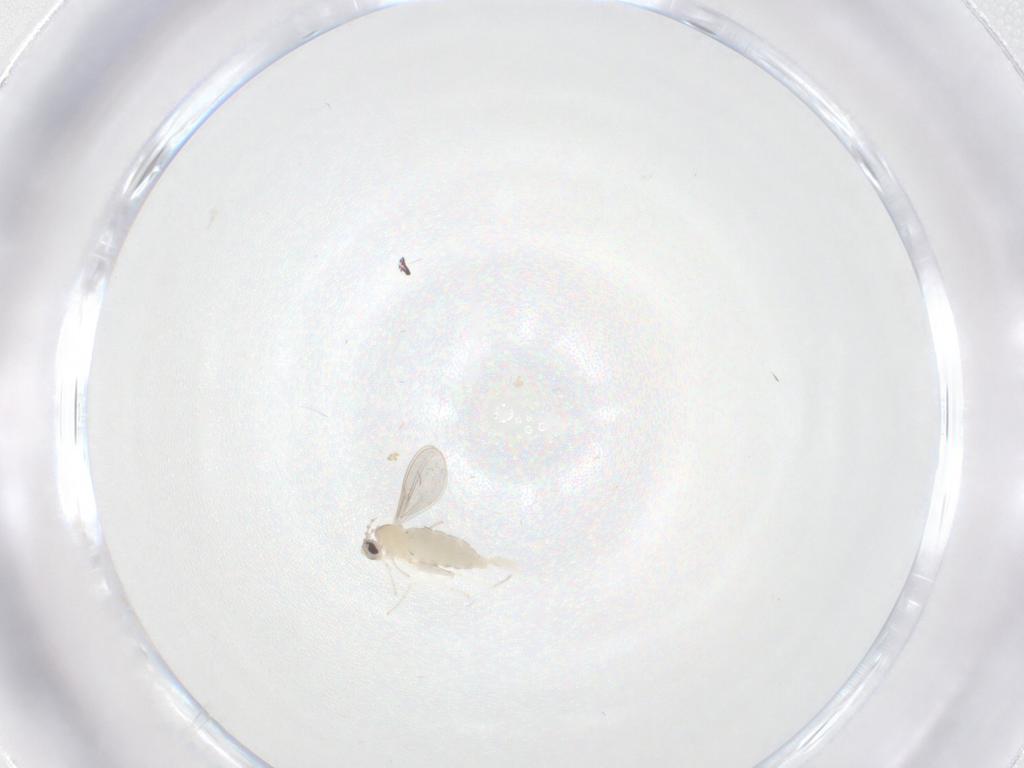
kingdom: Animalia
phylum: Arthropoda
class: Insecta
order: Diptera
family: Cecidomyiidae
